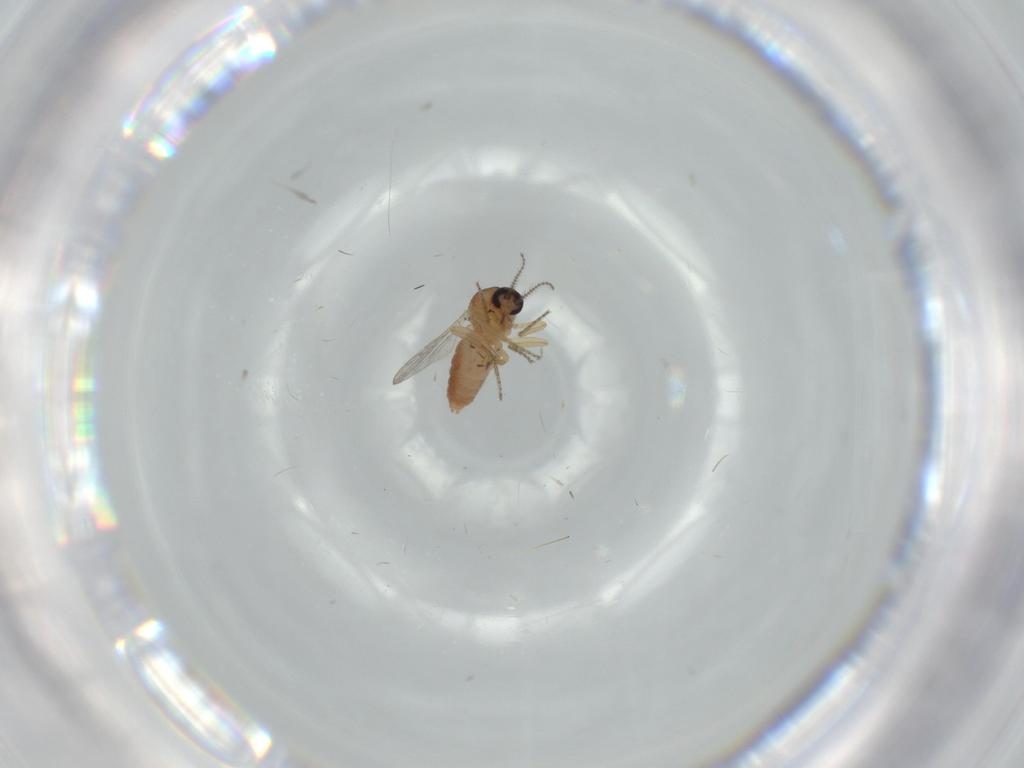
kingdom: Animalia
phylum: Arthropoda
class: Insecta
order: Diptera
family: Ceratopogonidae
